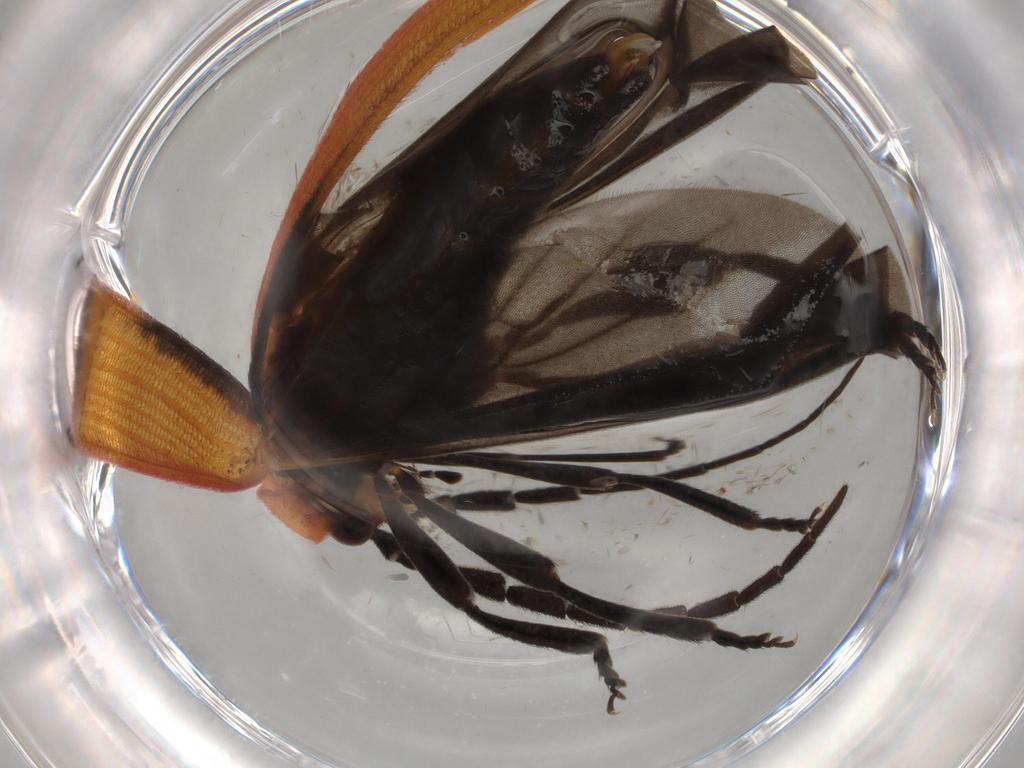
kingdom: Animalia
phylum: Arthropoda
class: Insecta
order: Coleoptera
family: Lycidae
